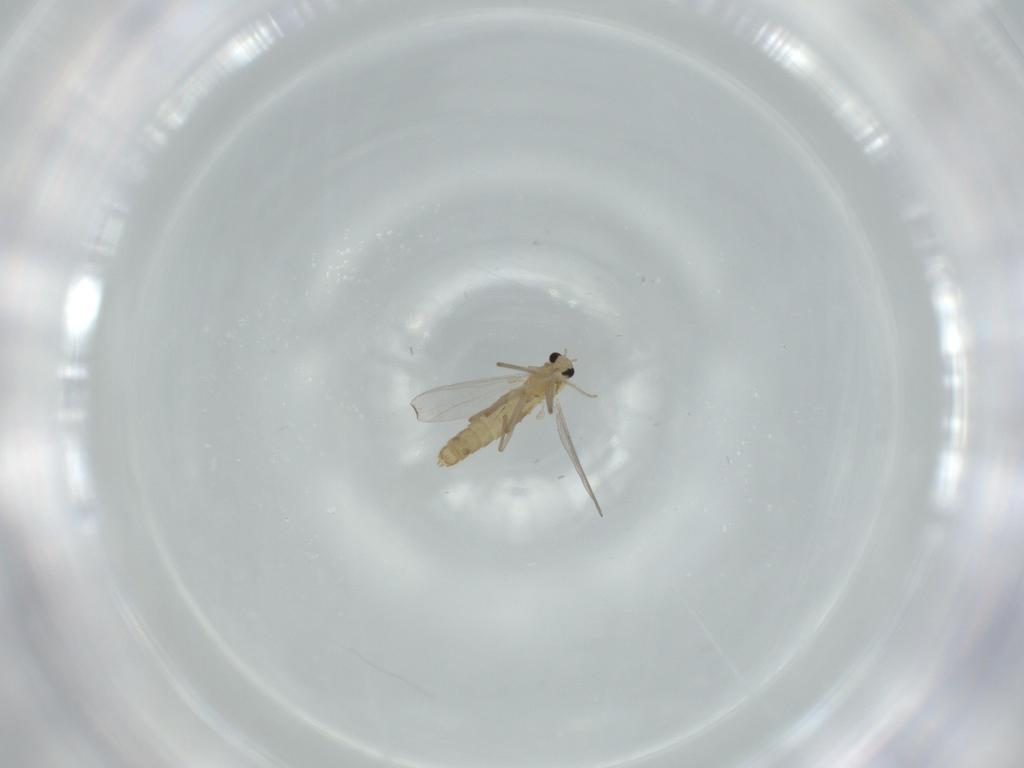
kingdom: Animalia
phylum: Arthropoda
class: Insecta
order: Diptera
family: Chironomidae
